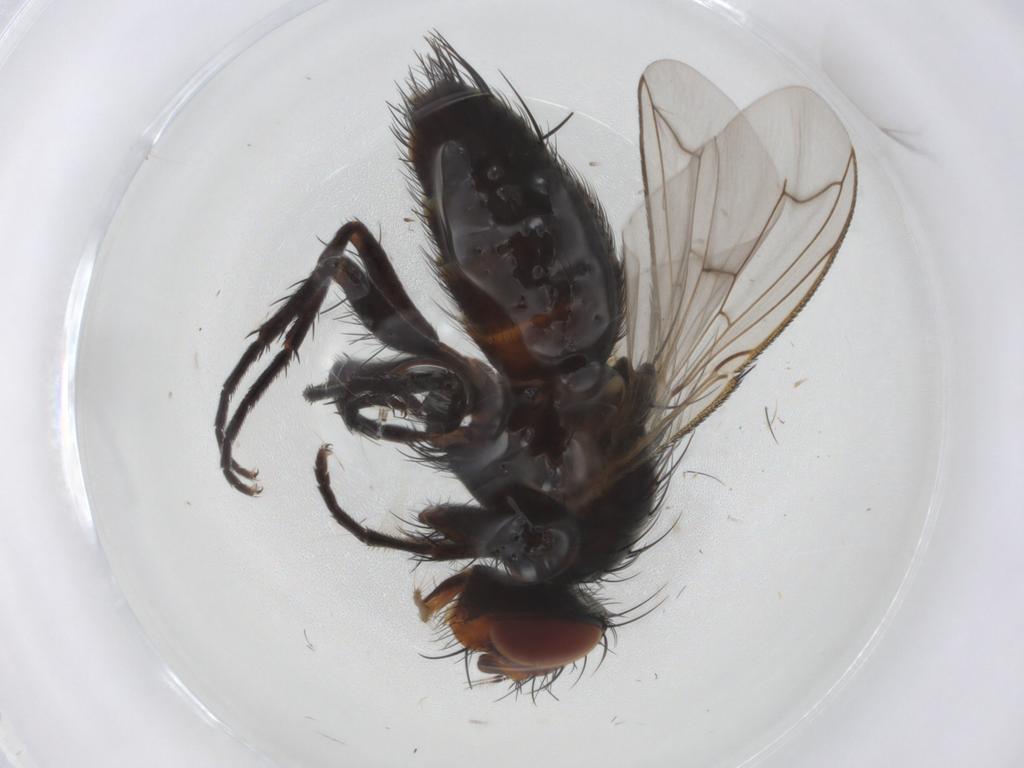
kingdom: Animalia
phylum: Arthropoda
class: Insecta
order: Diptera
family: Tachinidae
